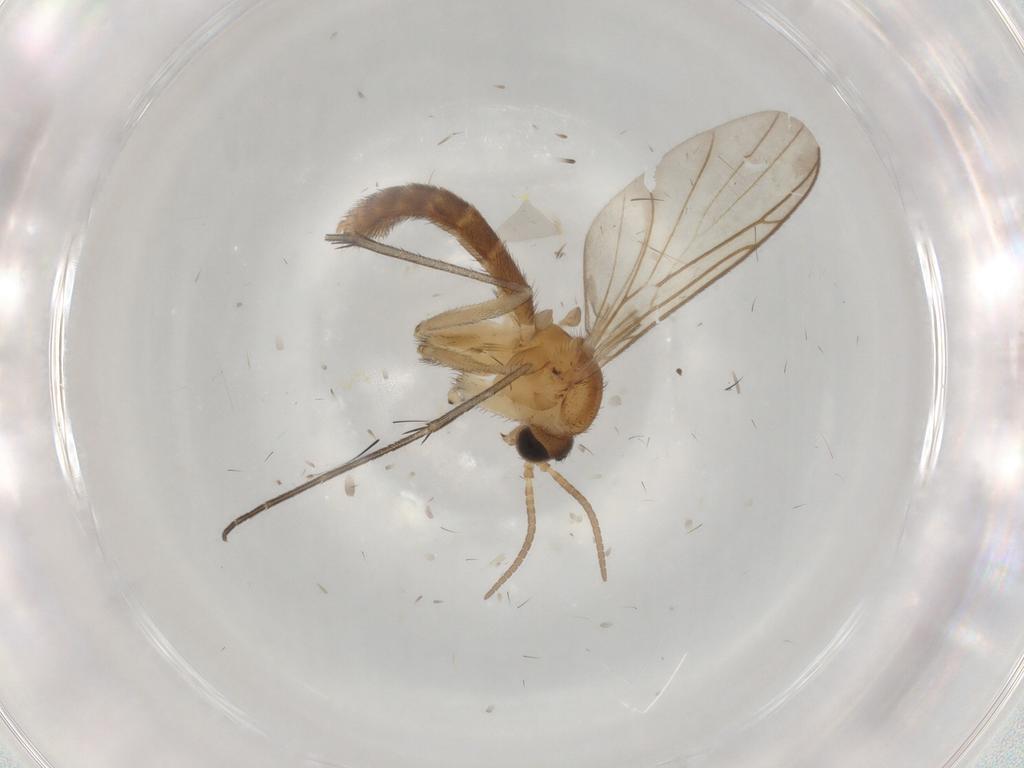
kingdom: Animalia
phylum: Arthropoda
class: Insecta
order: Diptera
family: Keroplatidae
